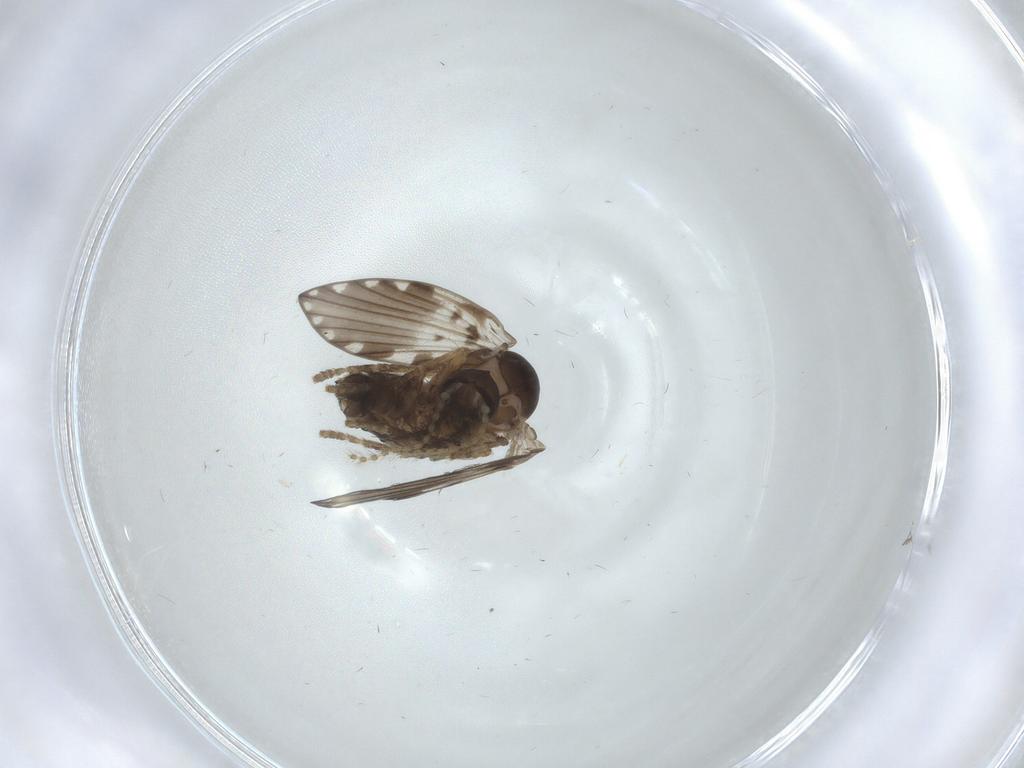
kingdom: Animalia
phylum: Arthropoda
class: Insecta
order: Diptera
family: Psychodidae
